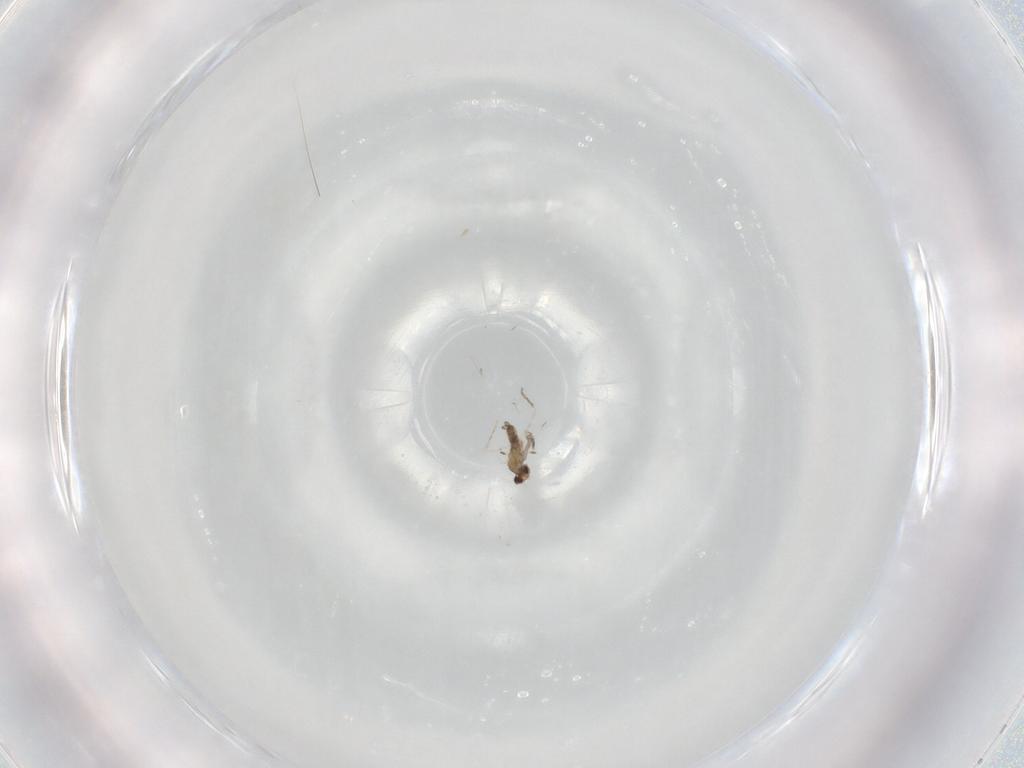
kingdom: Animalia
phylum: Arthropoda
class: Insecta
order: Diptera
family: Cecidomyiidae
